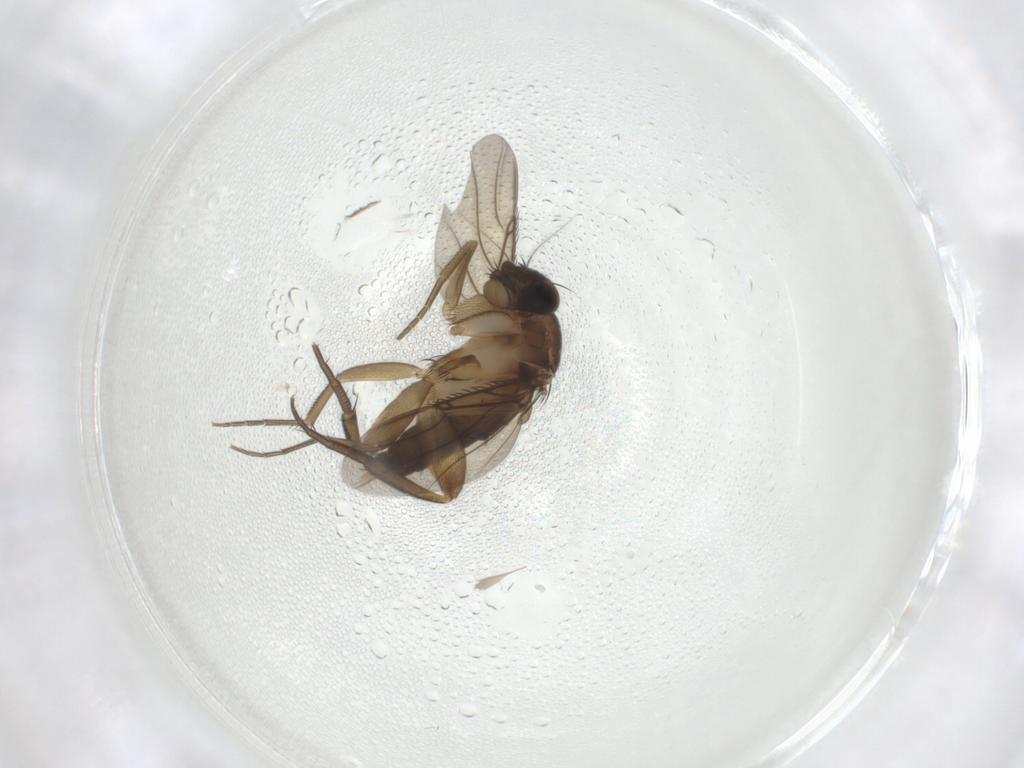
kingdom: Animalia
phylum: Arthropoda
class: Insecta
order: Diptera
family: Phoridae
